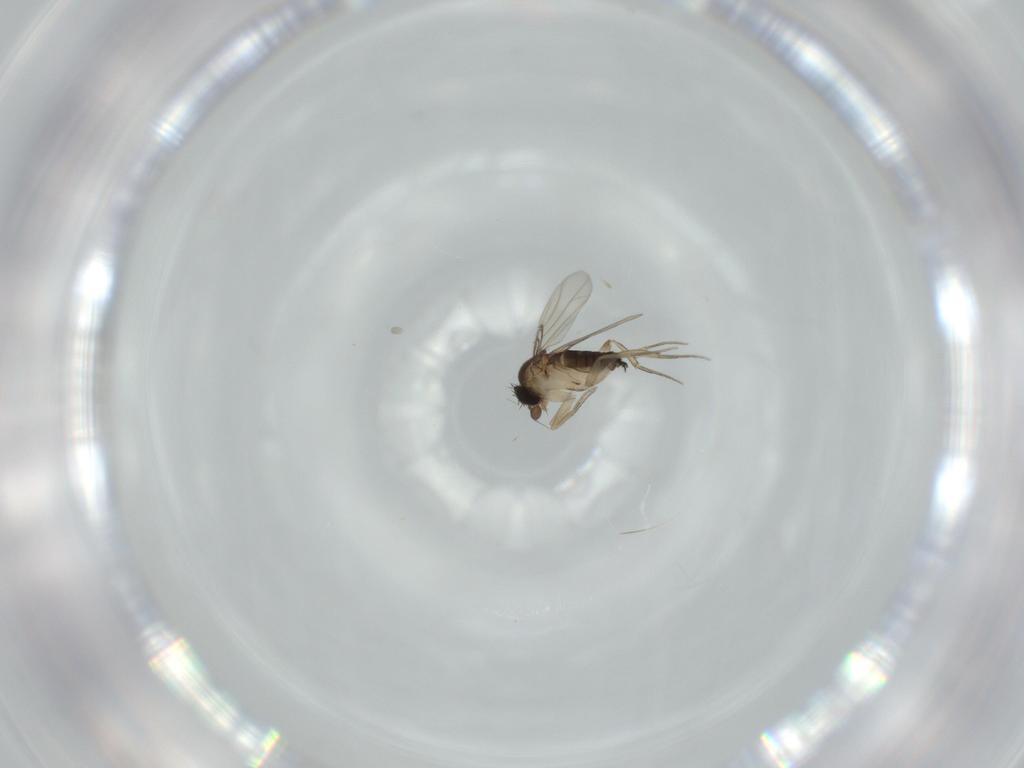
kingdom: Animalia
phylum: Arthropoda
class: Insecta
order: Diptera
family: Phoridae
